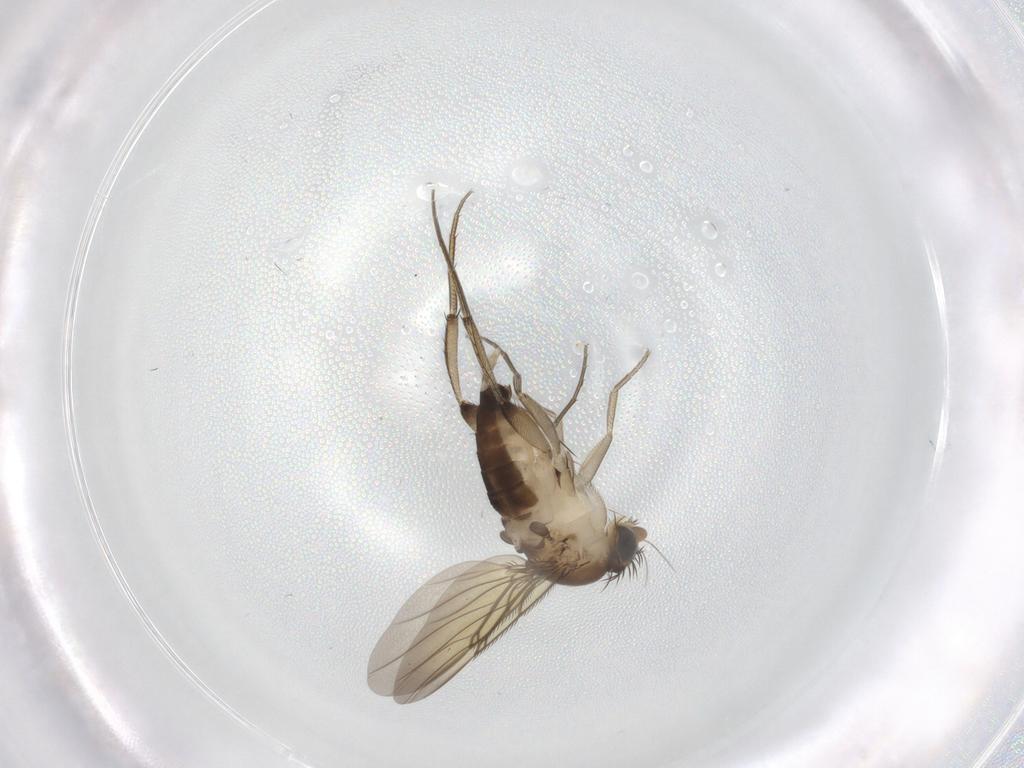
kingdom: Animalia
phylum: Arthropoda
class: Insecta
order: Diptera
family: Phoridae
